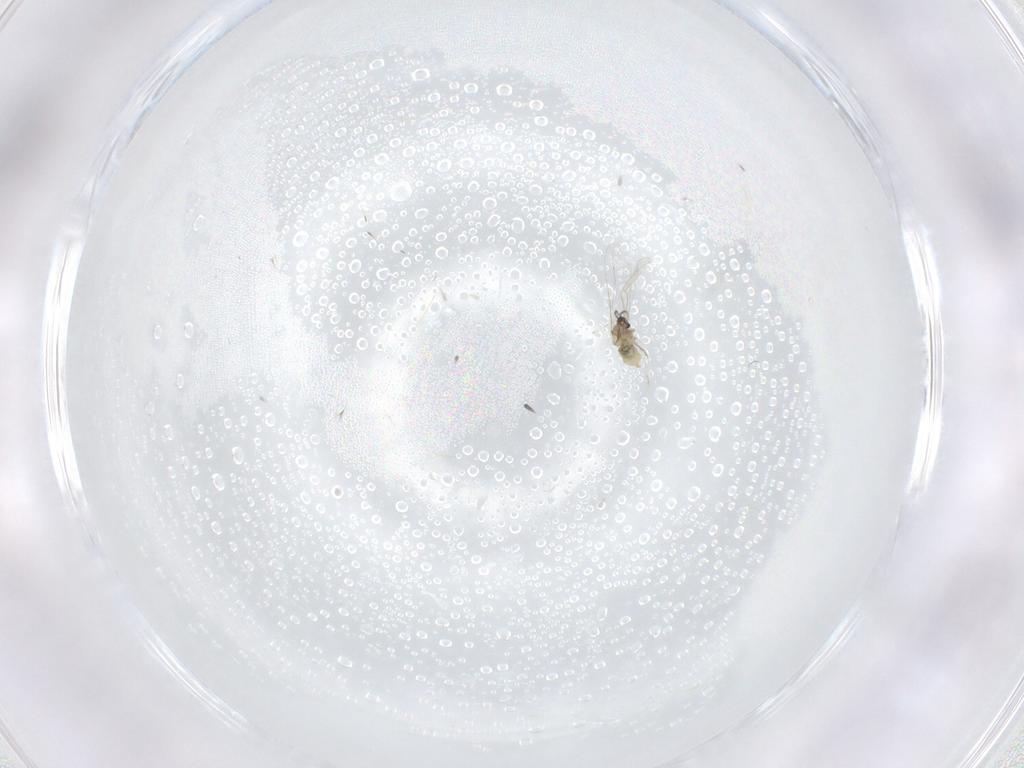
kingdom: Animalia
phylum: Arthropoda
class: Insecta
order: Diptera
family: Cecidomyiidae
